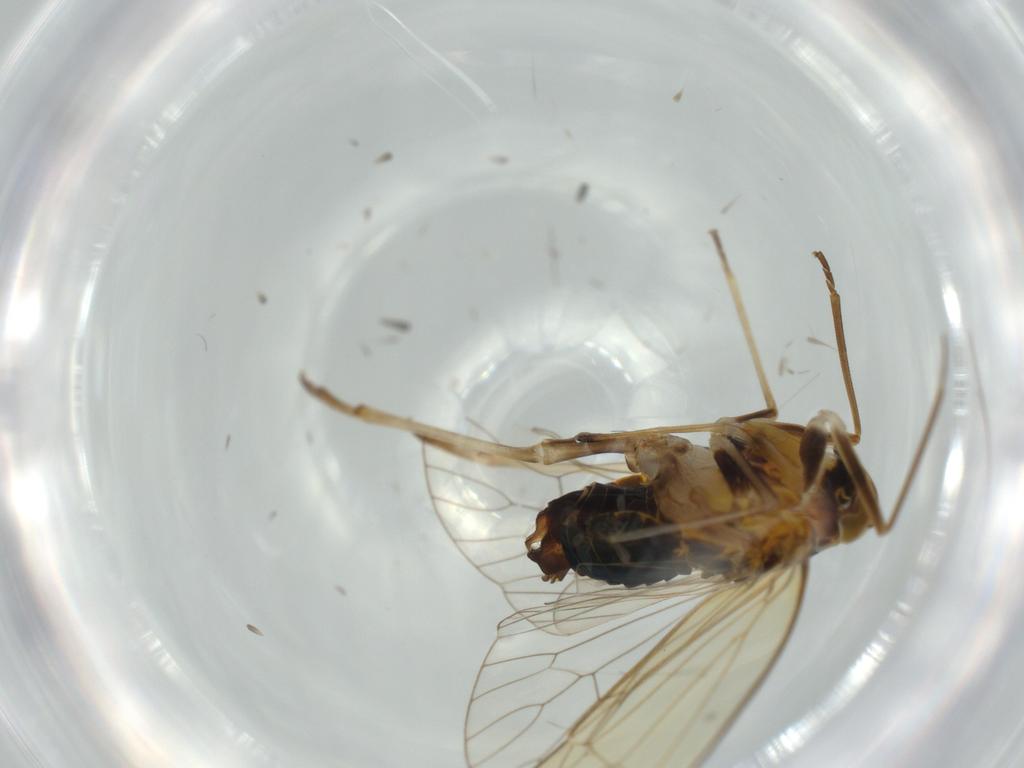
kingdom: Animalia
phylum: Arthropoda
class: Insecta
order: Hemiptera
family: Kinnaridae
